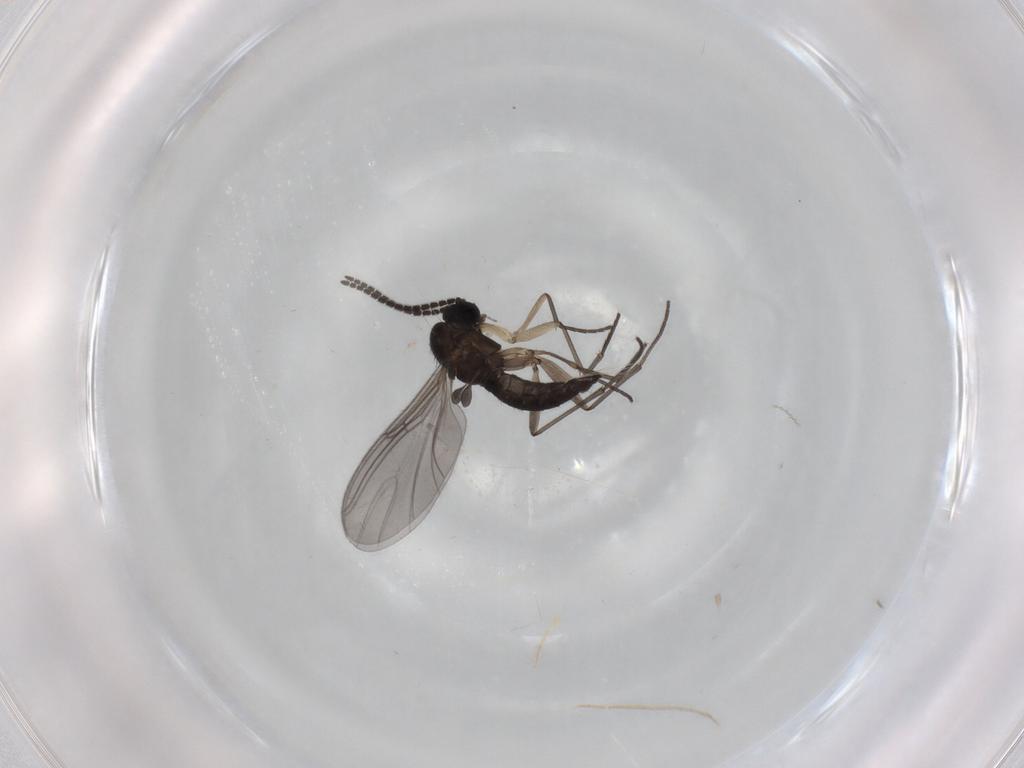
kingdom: Animalia
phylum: Arthropoda
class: Insecta
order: Diptera
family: Cecidomyiidae
